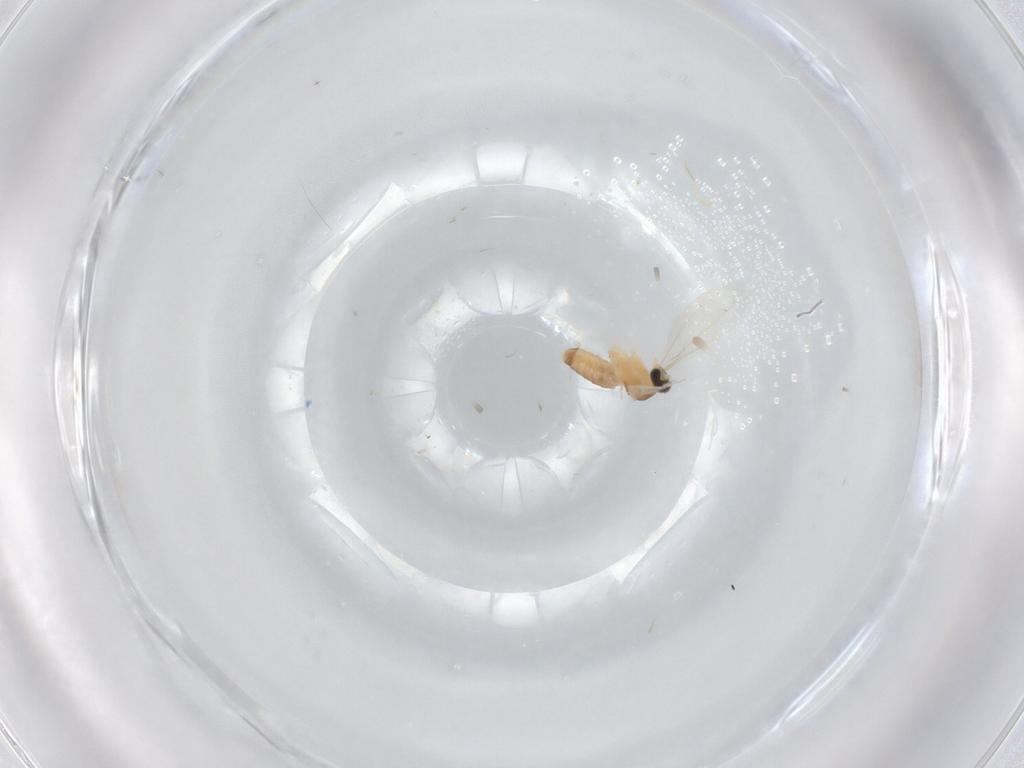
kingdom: Animalia
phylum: Arthropoda
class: Insecta
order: Diptera
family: Cecidomyiidae
